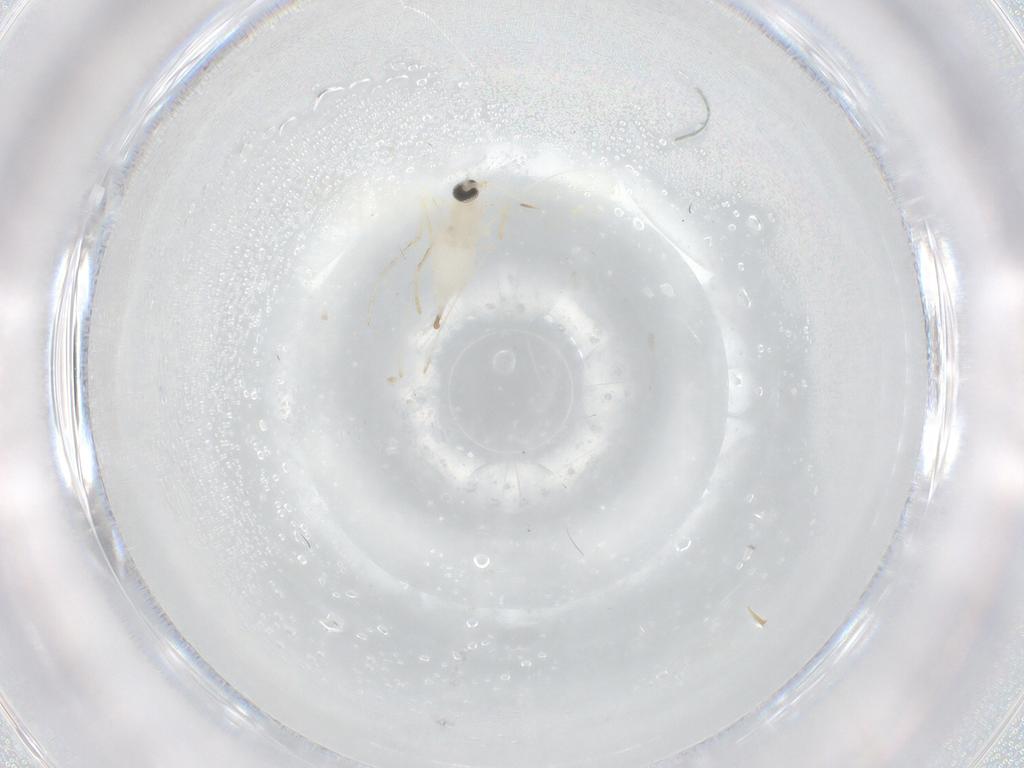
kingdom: Animalia
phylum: Arthropoda
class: Insecta
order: Diptera
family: Cecidomyiidae
